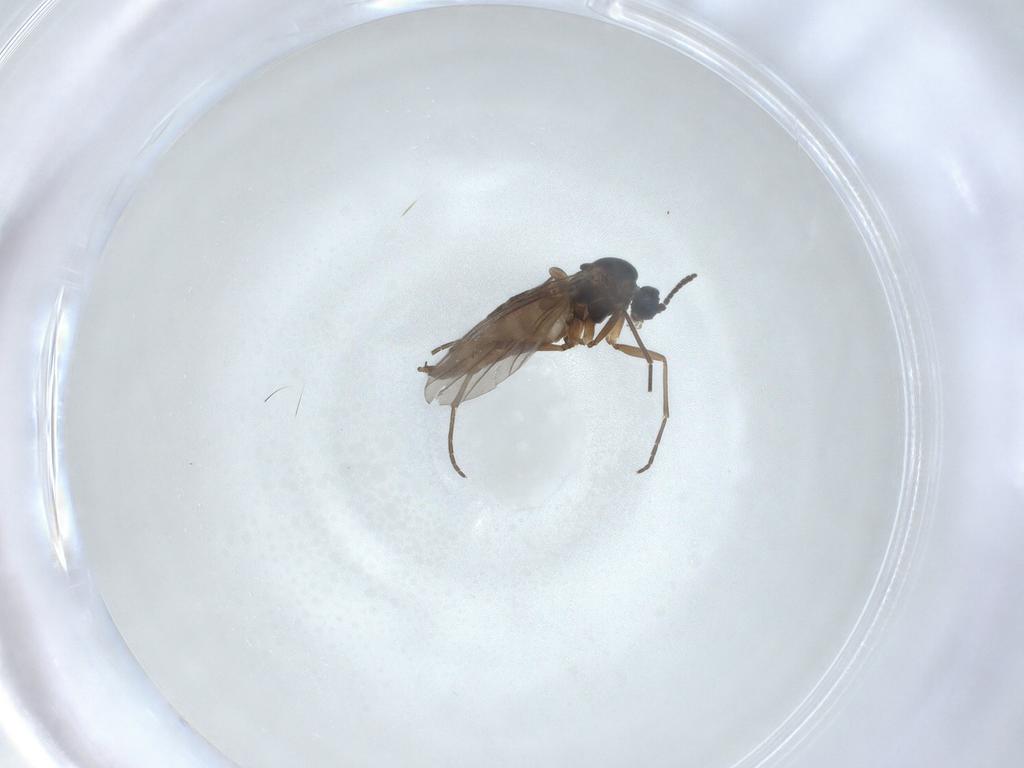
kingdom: Animalia
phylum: Arthropoda
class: Insecta
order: Diptera
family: Sciaridae
